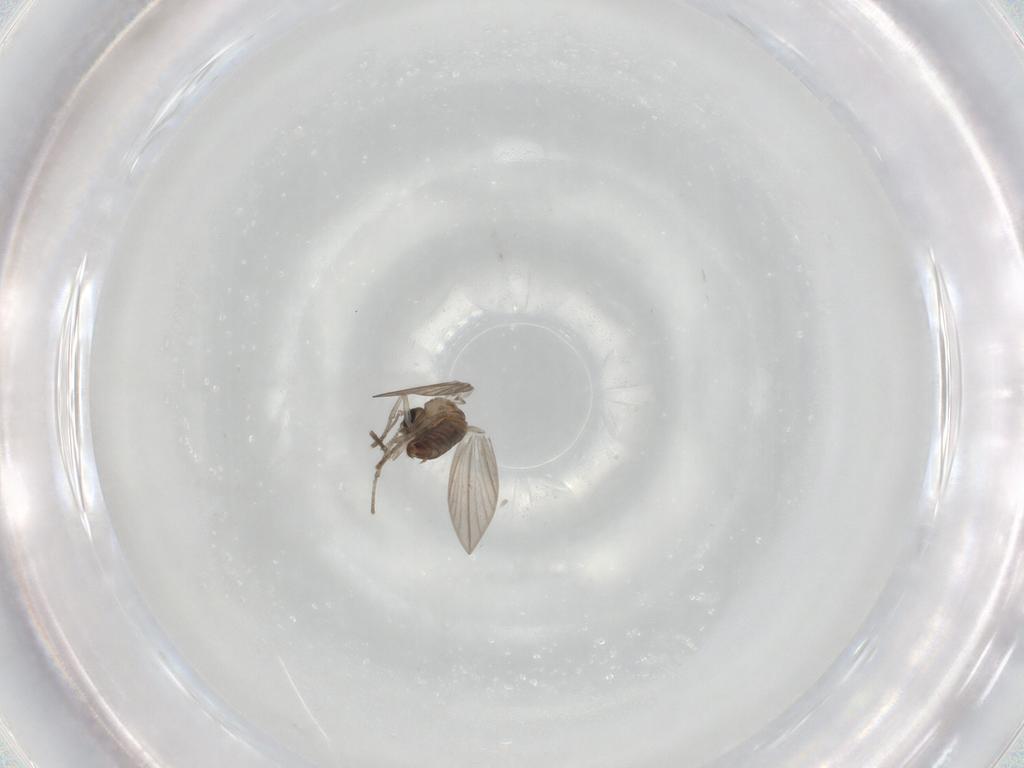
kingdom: Animalia
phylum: Arthropoda
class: Insecta
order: Diptera
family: Psychodidae
